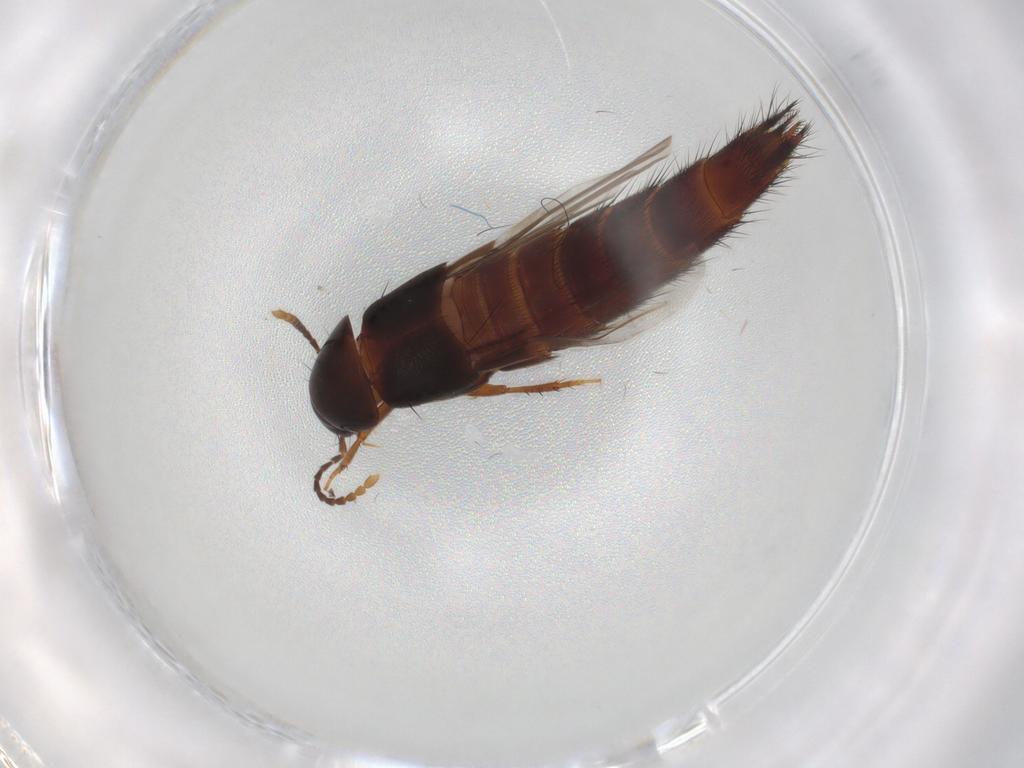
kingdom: Animalia
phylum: Arthropoda
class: Insecta
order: Coleoptera
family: Staphylinidae
